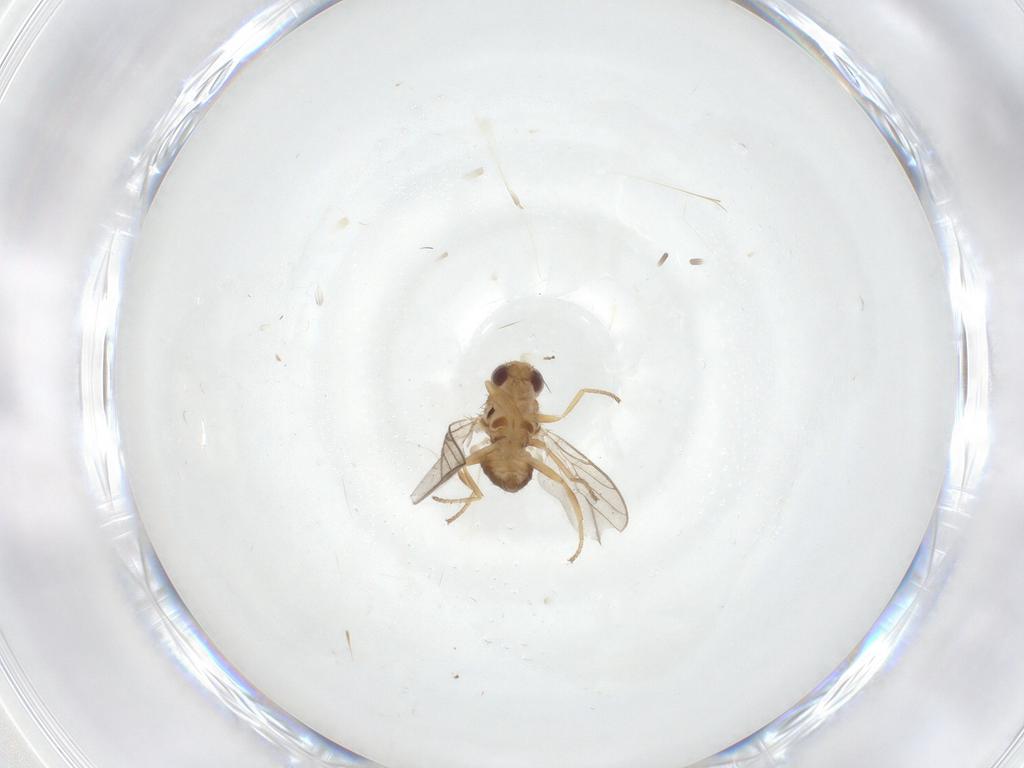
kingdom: Animalia
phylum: Arthropoda
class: Insecta
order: Diptera
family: Chloropidae
